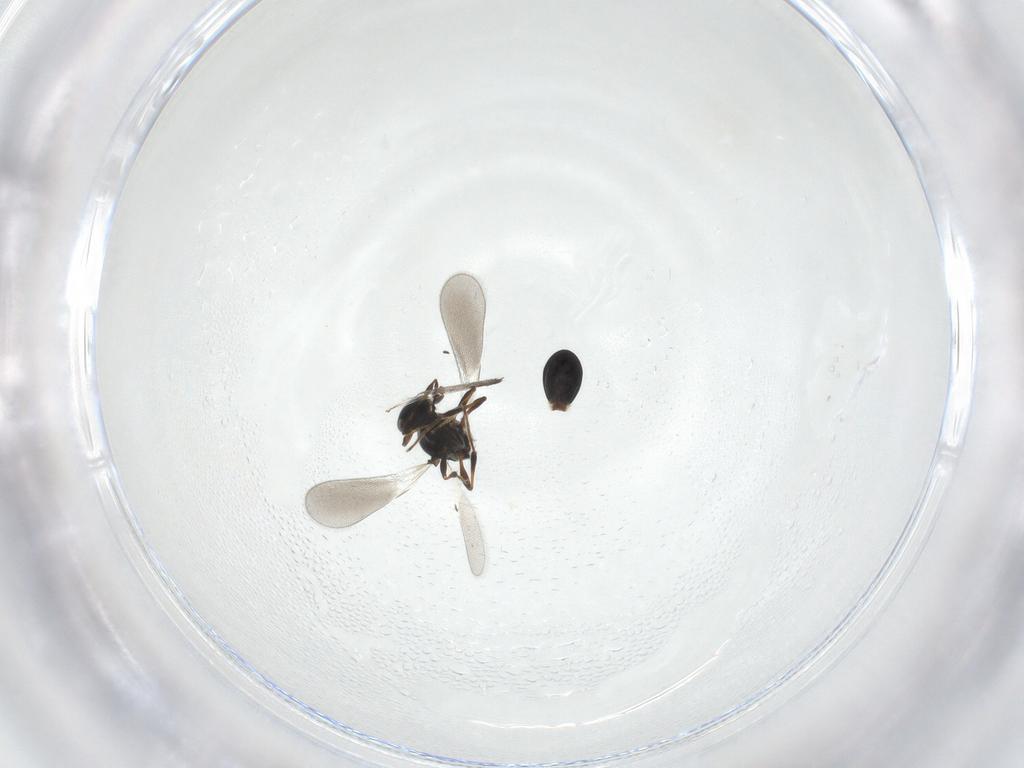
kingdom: Animalia
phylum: Arthropoda
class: Insecta
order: Hymenoptera
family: Platygastridae
